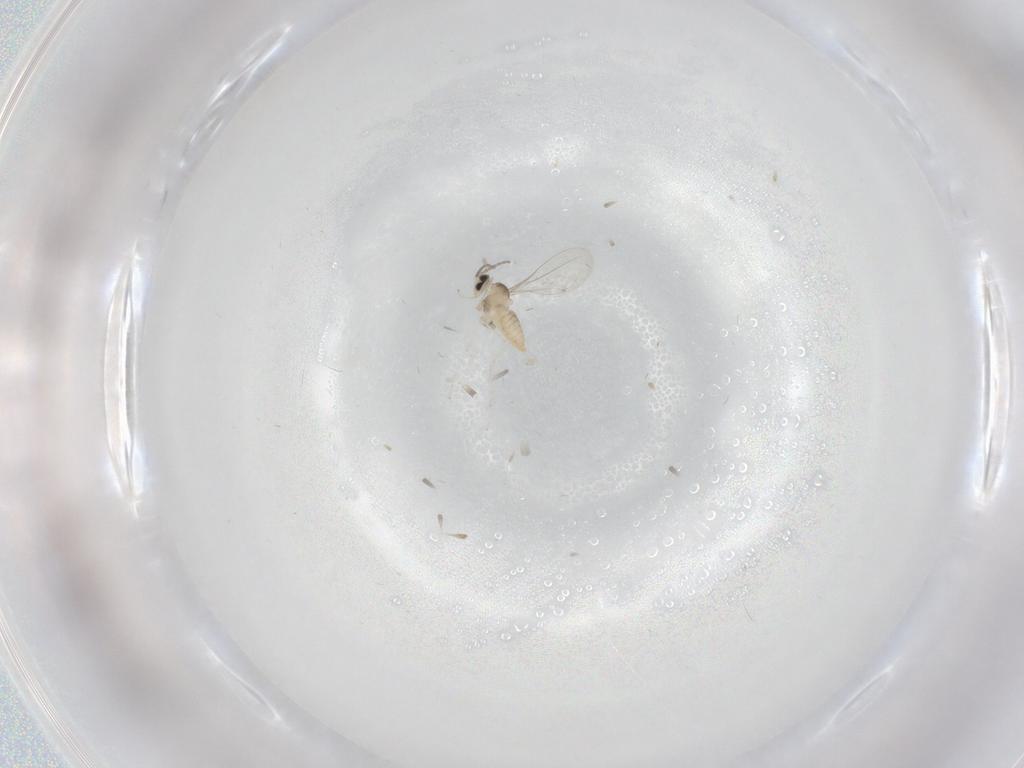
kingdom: Animalia
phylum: Arthropoda
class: Insecta
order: Diptera
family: Cecidomyiidae
